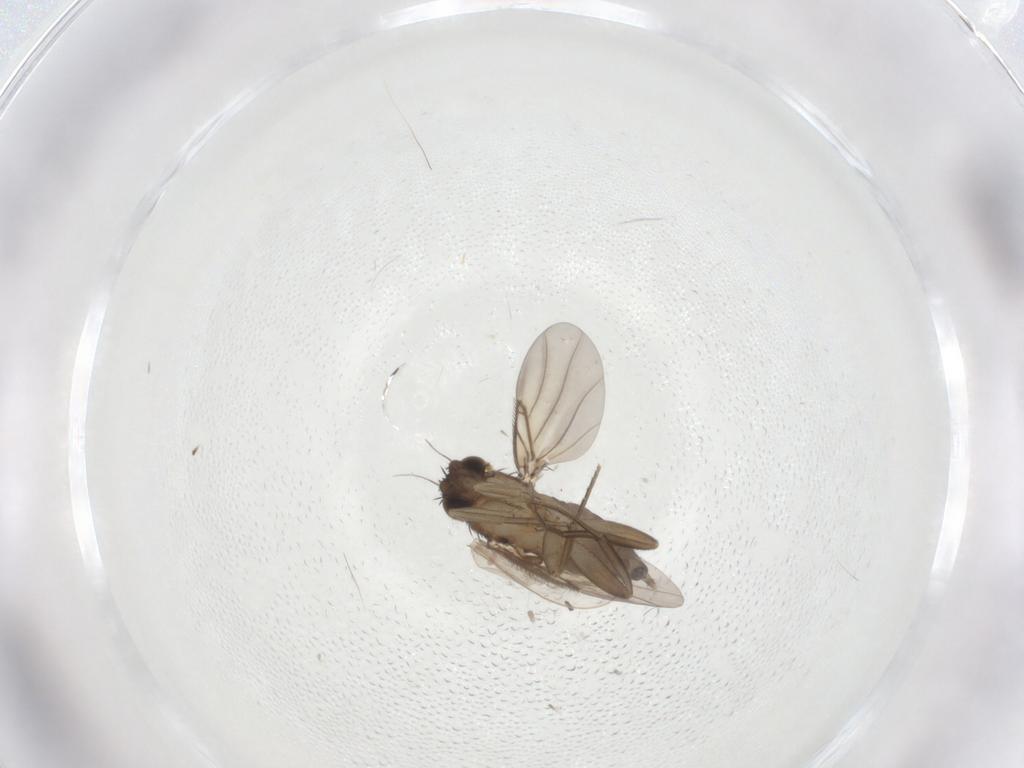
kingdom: Animalia
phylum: Arthropoda
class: Insecta
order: Diptera
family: Phoridae
